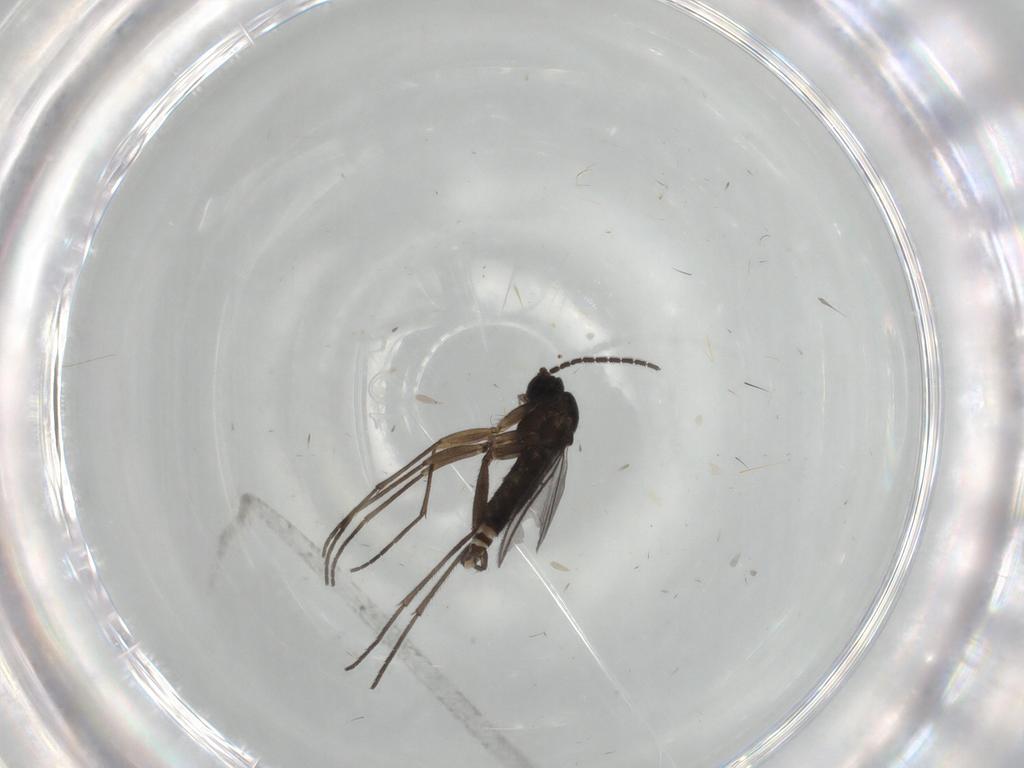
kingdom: Animalia
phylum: Arthropoda
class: Insecta
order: Diptera
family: Sciaridae
